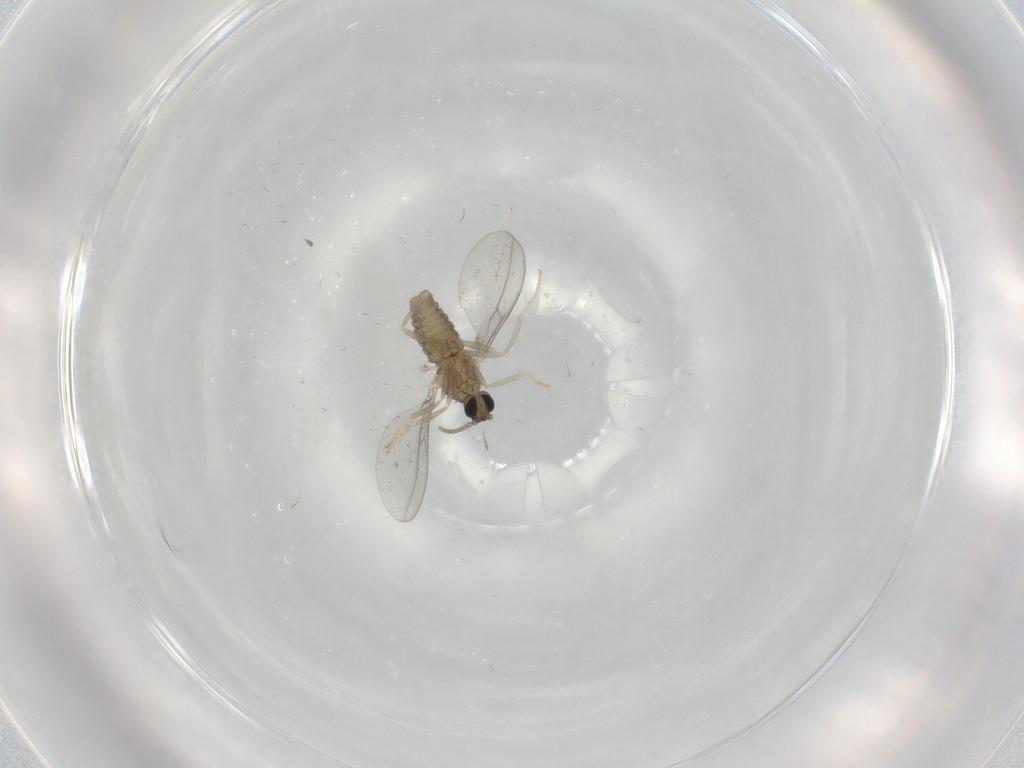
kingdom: Animalia
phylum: Arthropoda
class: Insecta
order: Diptera
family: Cecidomyiidae
